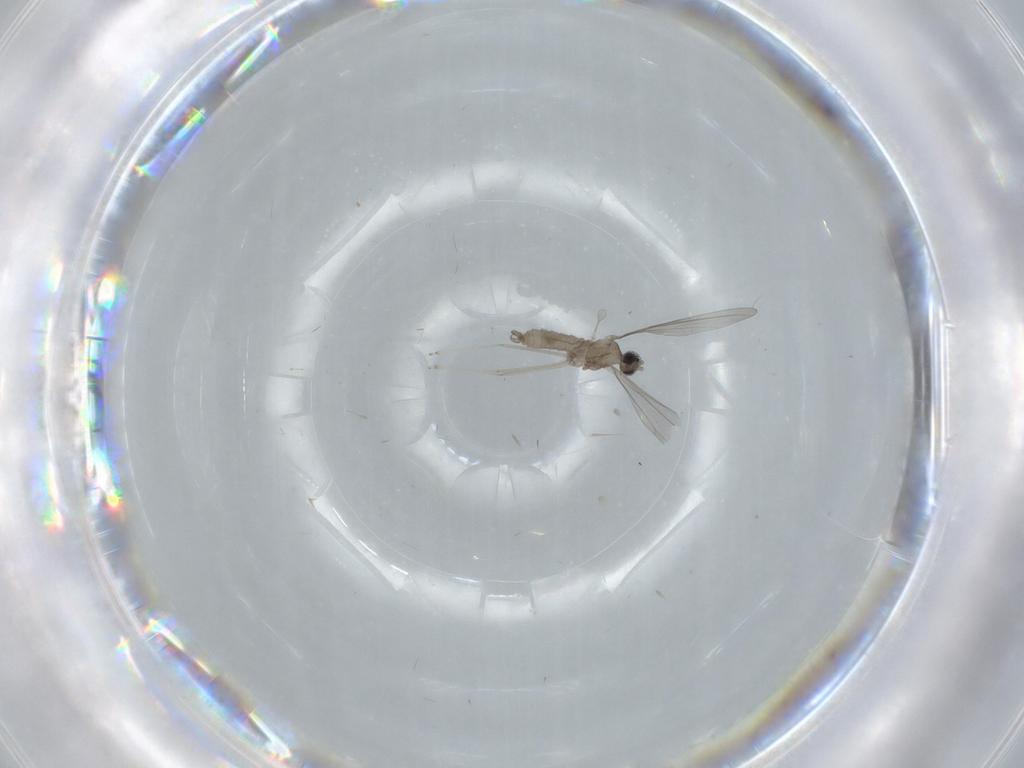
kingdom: Animalia
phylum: Arthropoda
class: Insecta
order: Diptera
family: Cecidomyiidae
